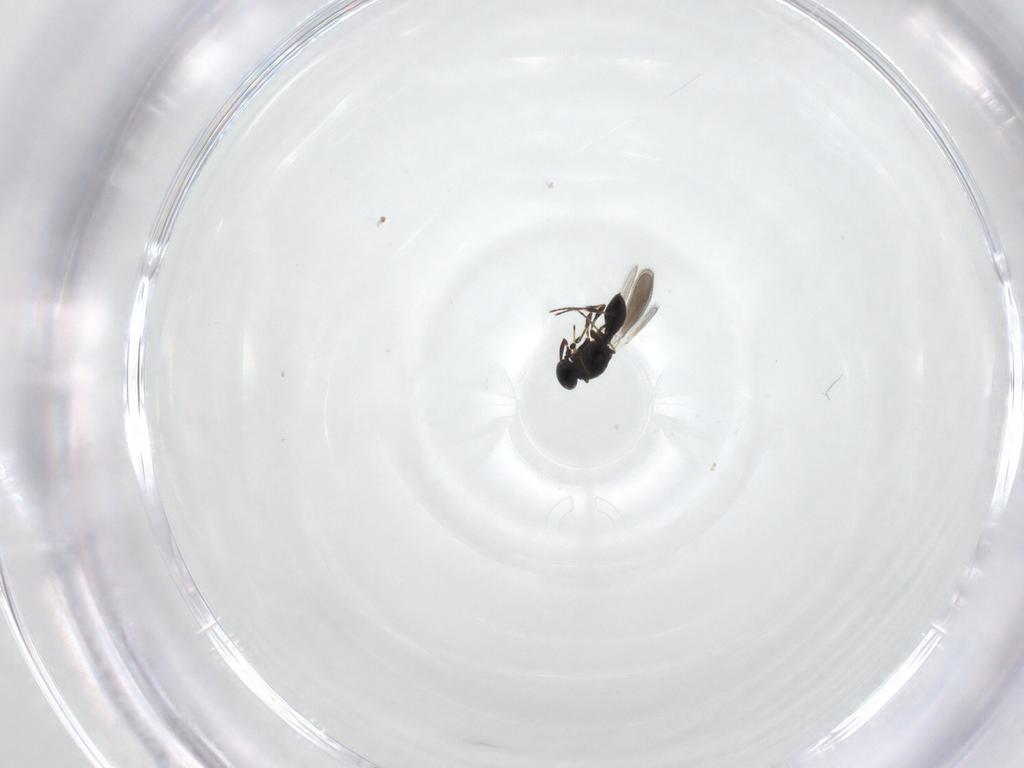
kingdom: Animalia
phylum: Arthropoda
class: Insecta
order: Hymenoptera
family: Platygastridae
